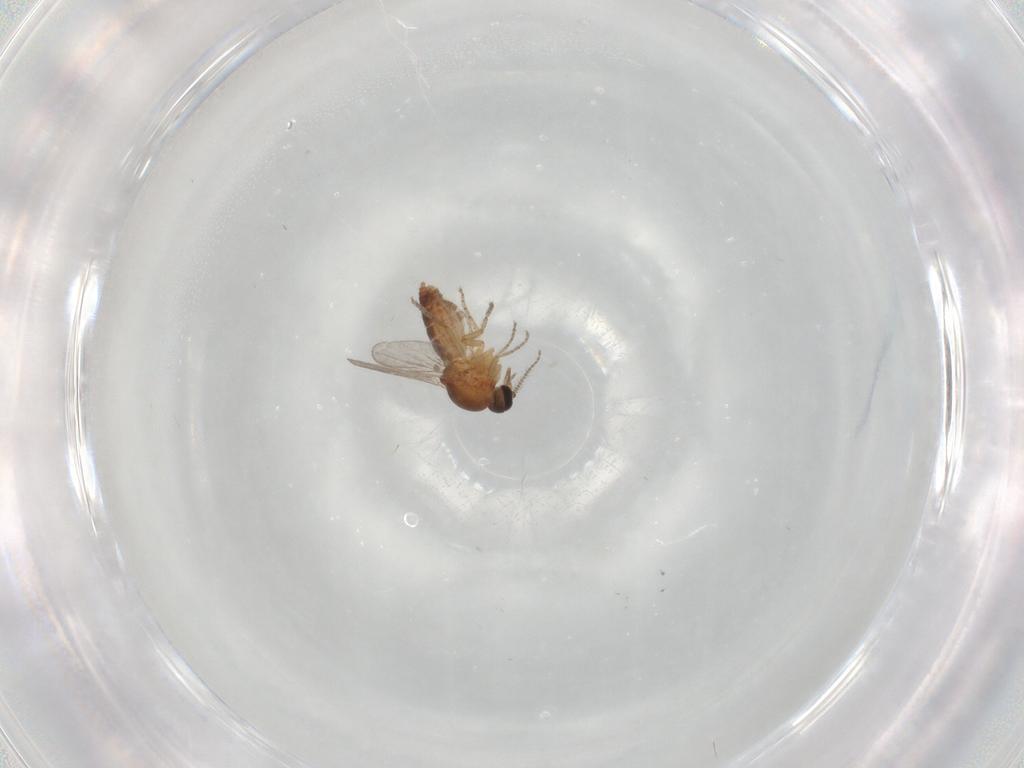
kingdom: Animalia
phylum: Arthropoda
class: Insecta
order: Diptera
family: Ceratopogonidae
